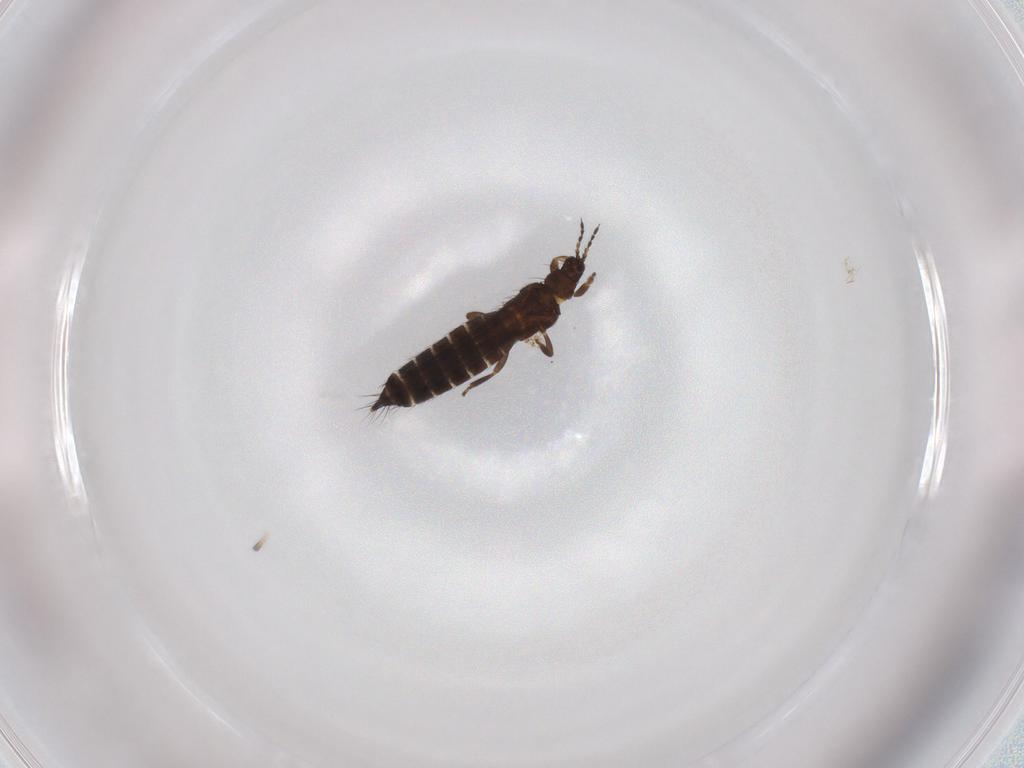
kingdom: Animalia
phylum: Arthropoda
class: Insecta
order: Thysanoptera
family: Thripidae
